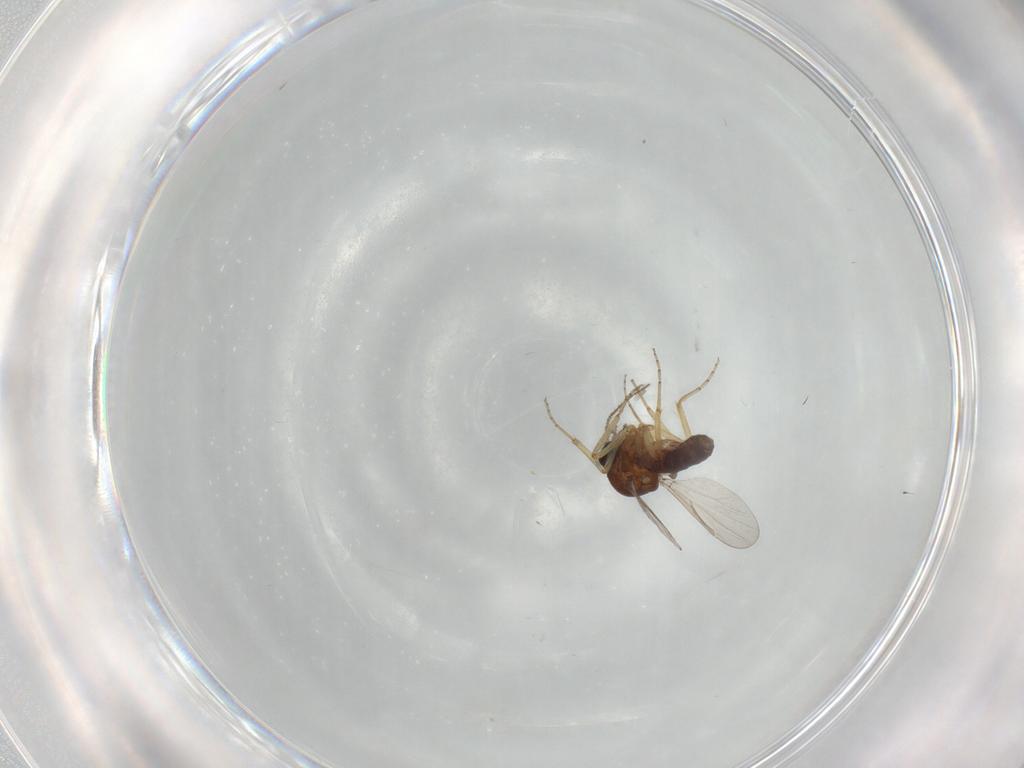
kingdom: Animalia
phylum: Arthropoda
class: Insecta
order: Diptera
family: Ceratopogonidae
